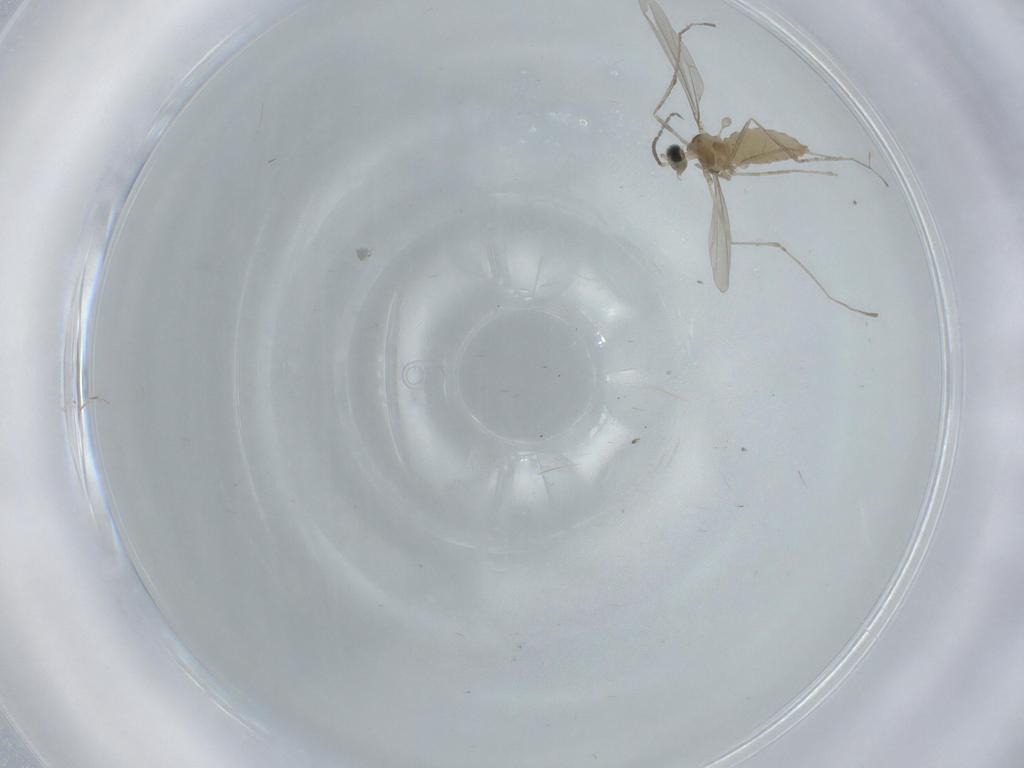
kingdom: Animalia
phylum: Arthropoda
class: Insecta
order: Diptera
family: Cecidomyiidae
